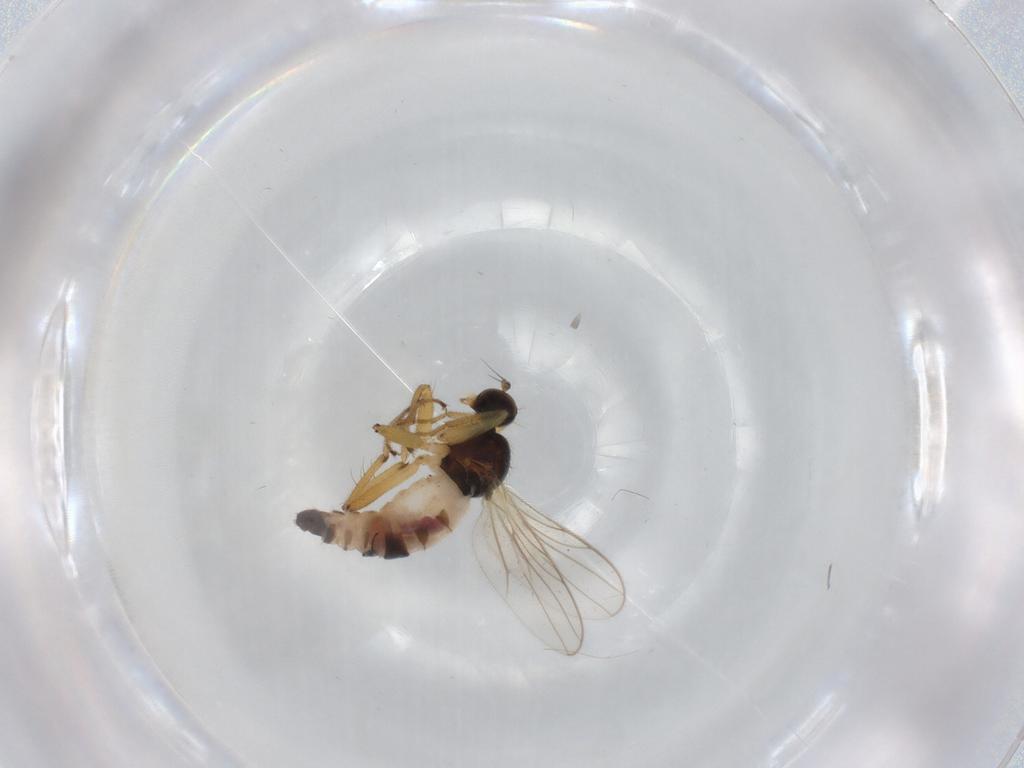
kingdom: Animalia
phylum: Arthropoda
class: Insecta
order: Diptera
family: Hybotidae
